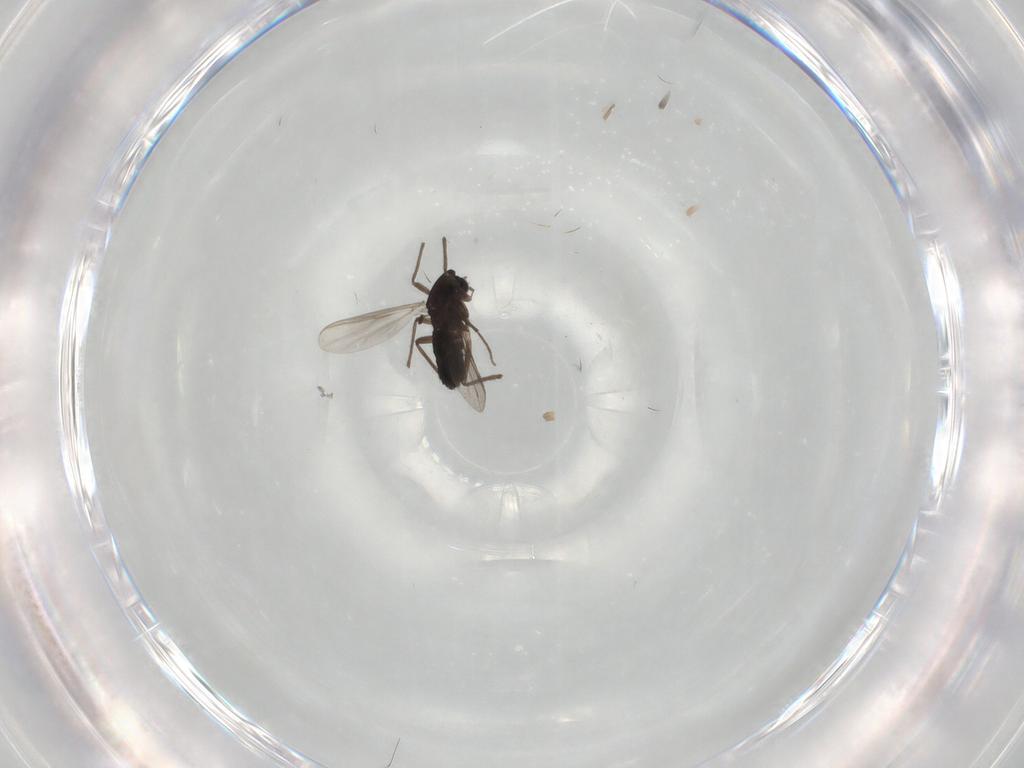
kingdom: Animalia
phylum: Arthropoda
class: Insecta
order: Diptera
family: Chironomidae
